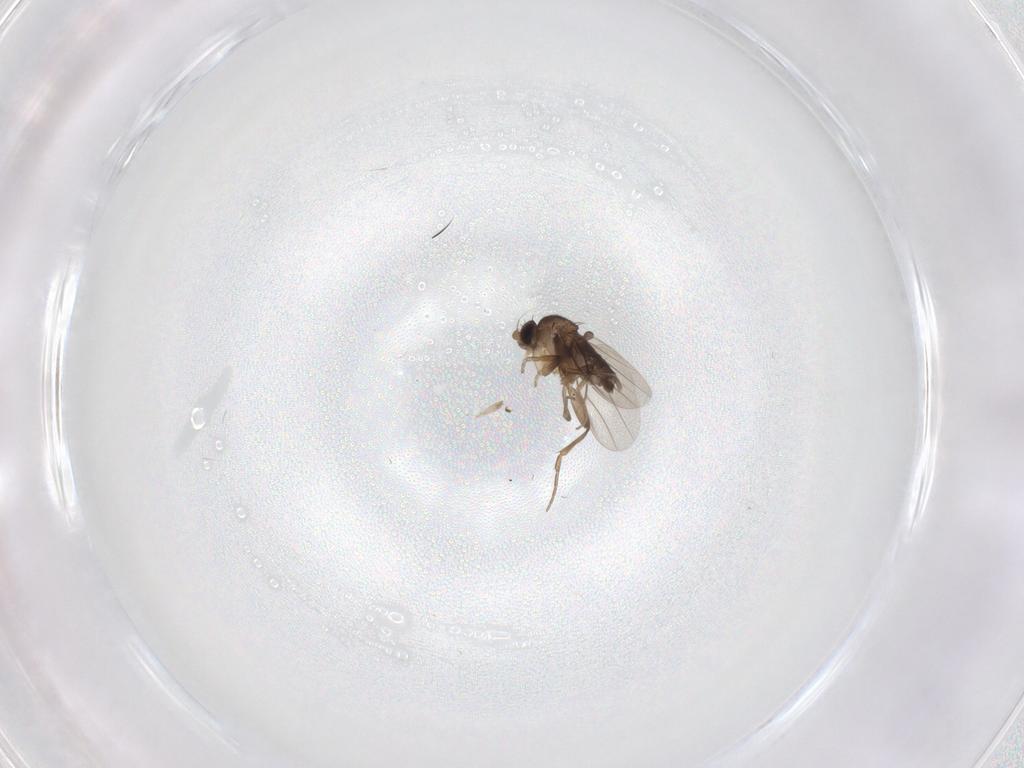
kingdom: Animalia
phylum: Arthropoda
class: Insecta
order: Diptera
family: Phoridae
